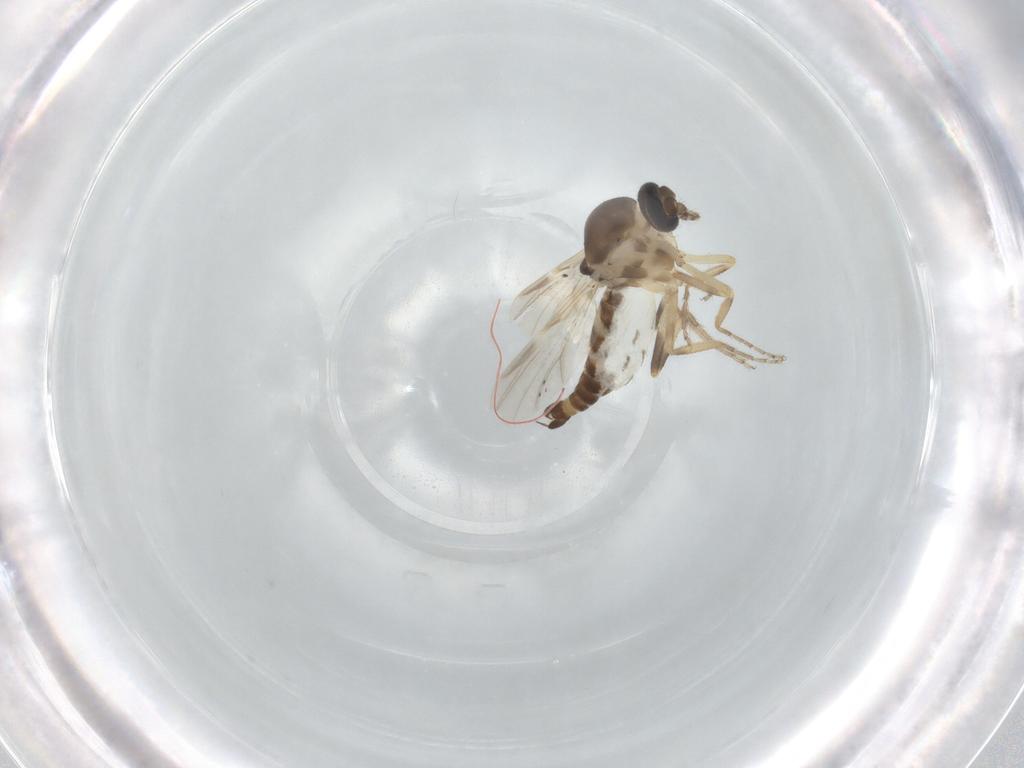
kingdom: Animalia
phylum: Arthropoda
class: Insecta
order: Diptera
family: Ceratopogonidae
